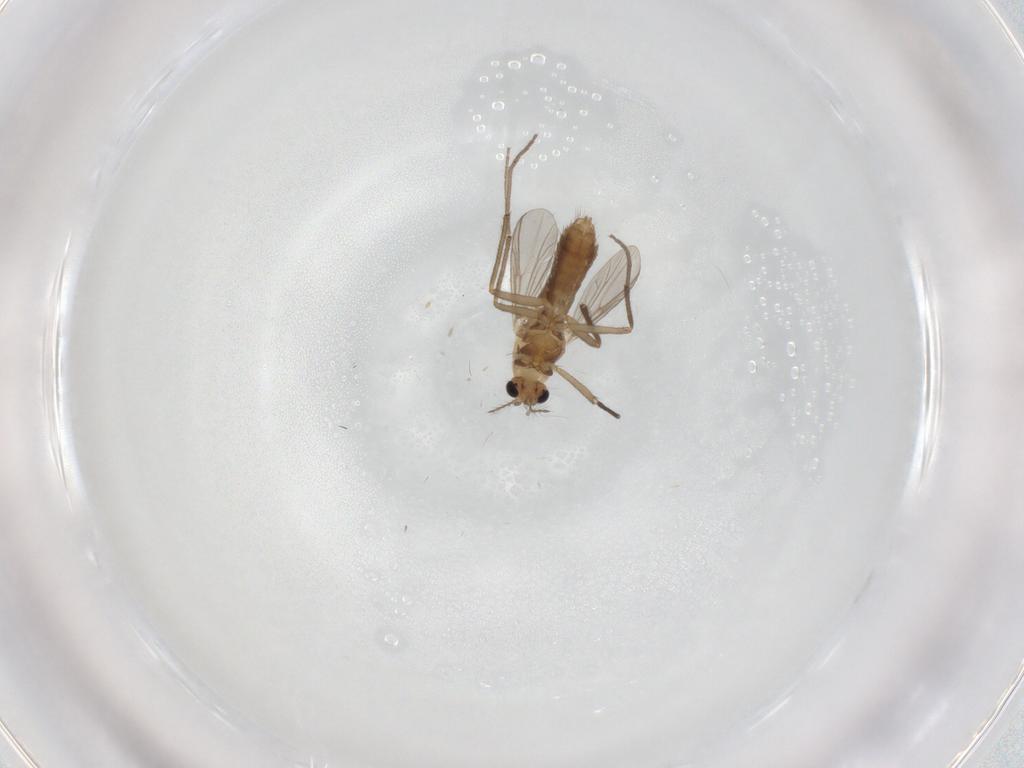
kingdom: Animalia
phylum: Arthropoda
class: Insecta
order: Diptera
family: Chironomidae
